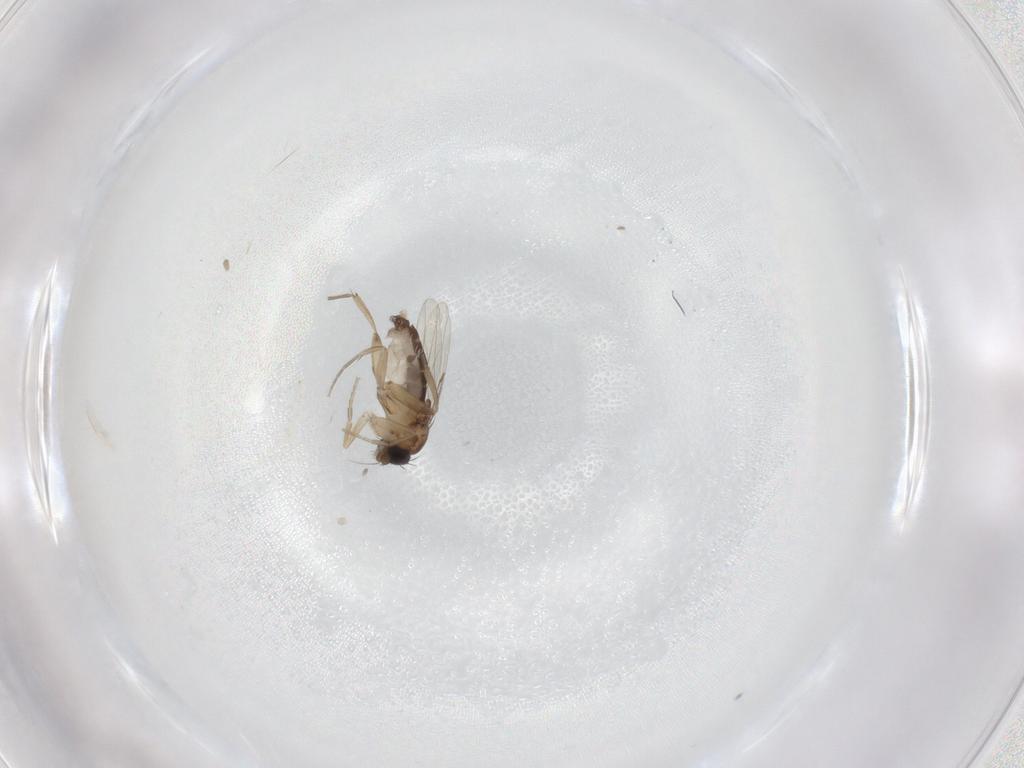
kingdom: Animalia
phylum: Arthropoda
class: Insecta
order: Diptera
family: Phoridae
